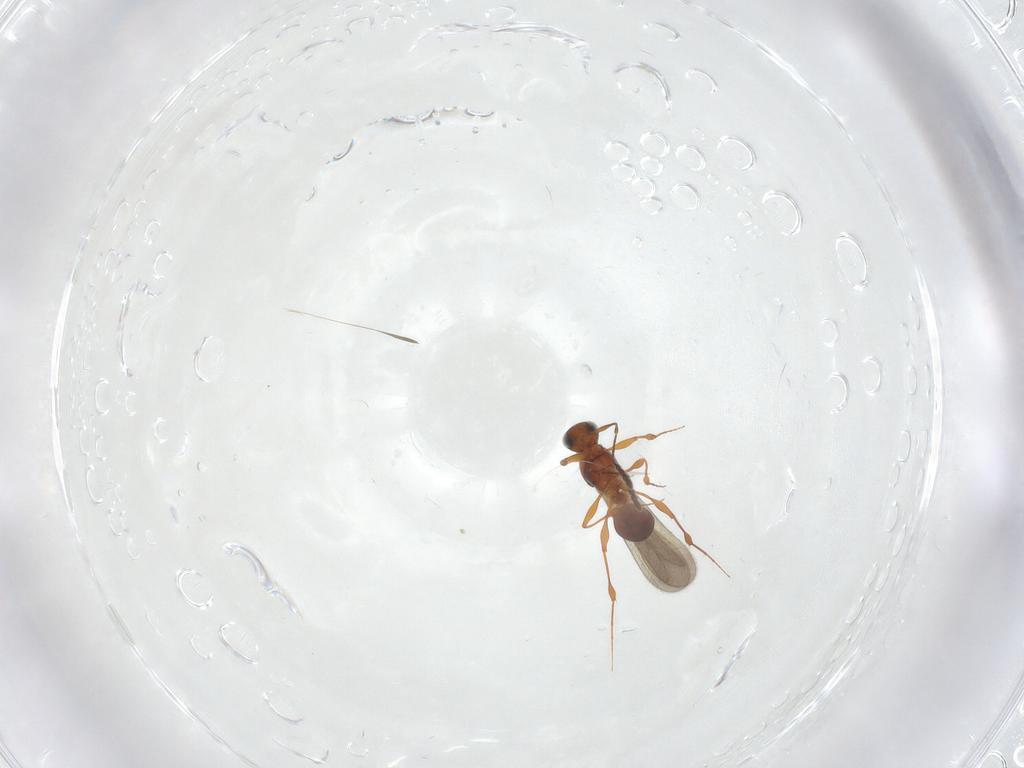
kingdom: Animalia
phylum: Arthropoda
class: Insecta
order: Hymenoptera
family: Platygastridae
